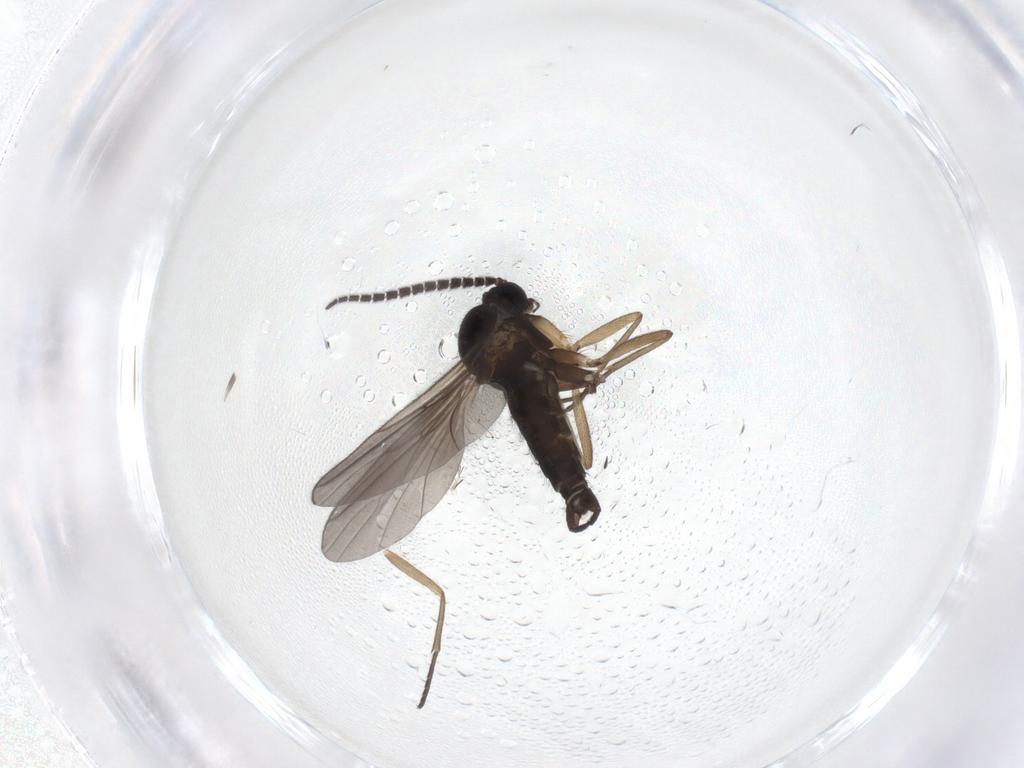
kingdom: Animalia
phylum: Arthropoda
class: Insecta
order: Diptera
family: Sciaridae
